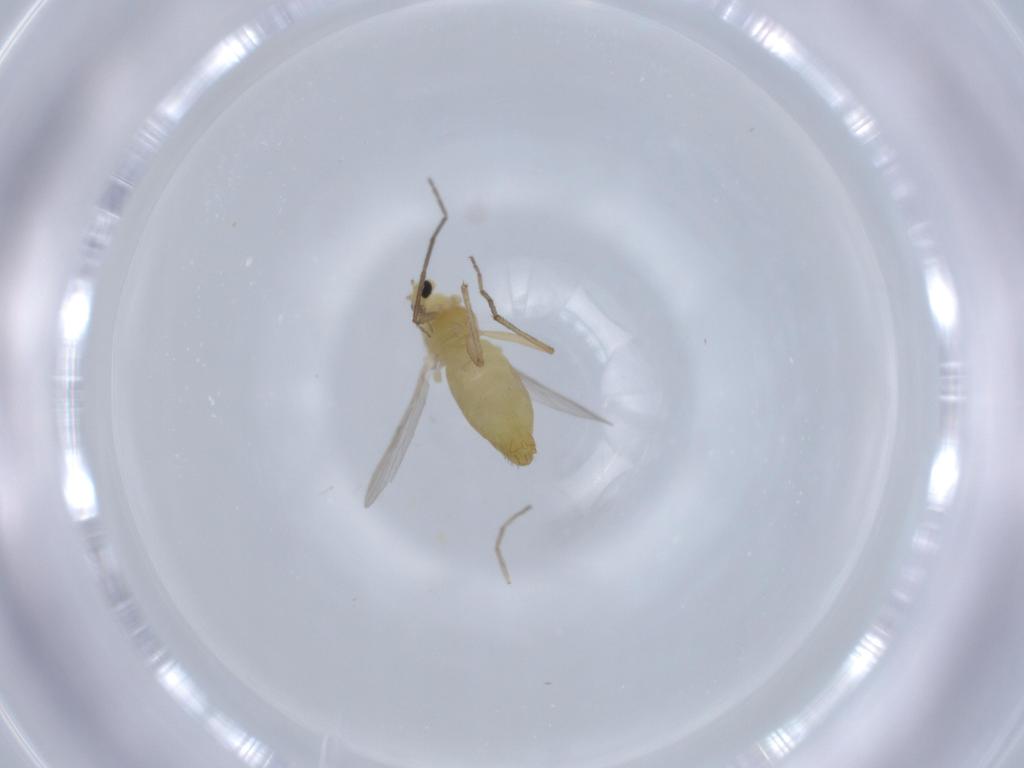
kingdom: Animalia
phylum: Arthropoda
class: Insecta
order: Diptera
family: Chironomidae
